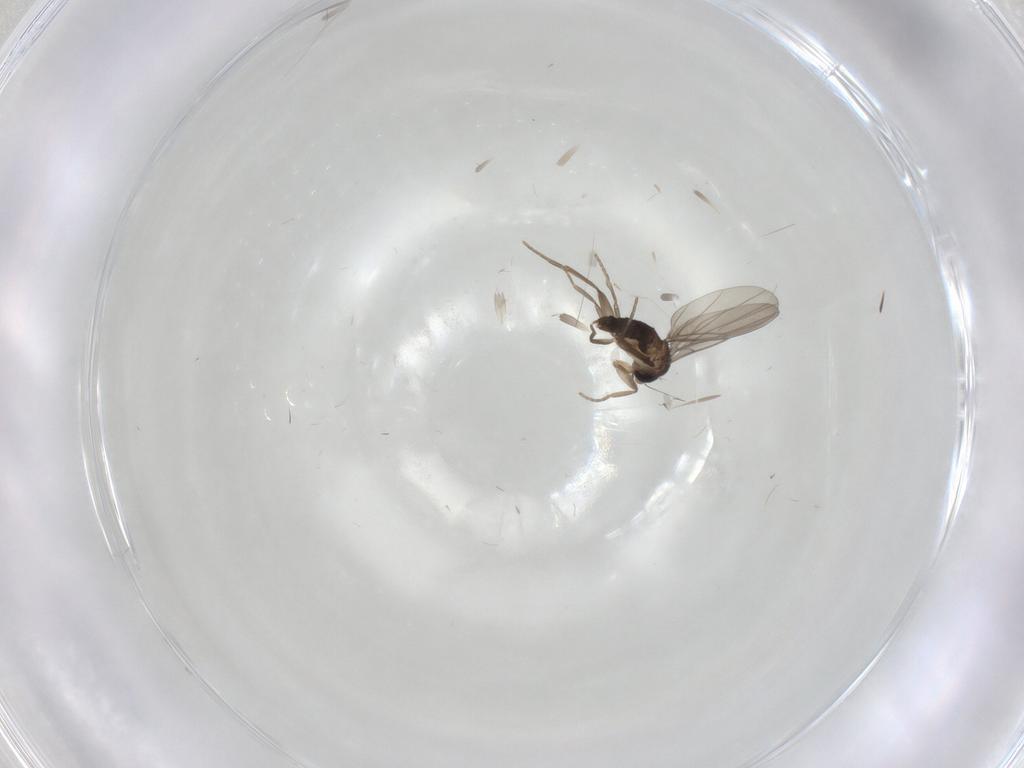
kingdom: Animalia
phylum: Arthropoda
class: Insecta
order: Diptera
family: Phoridae
